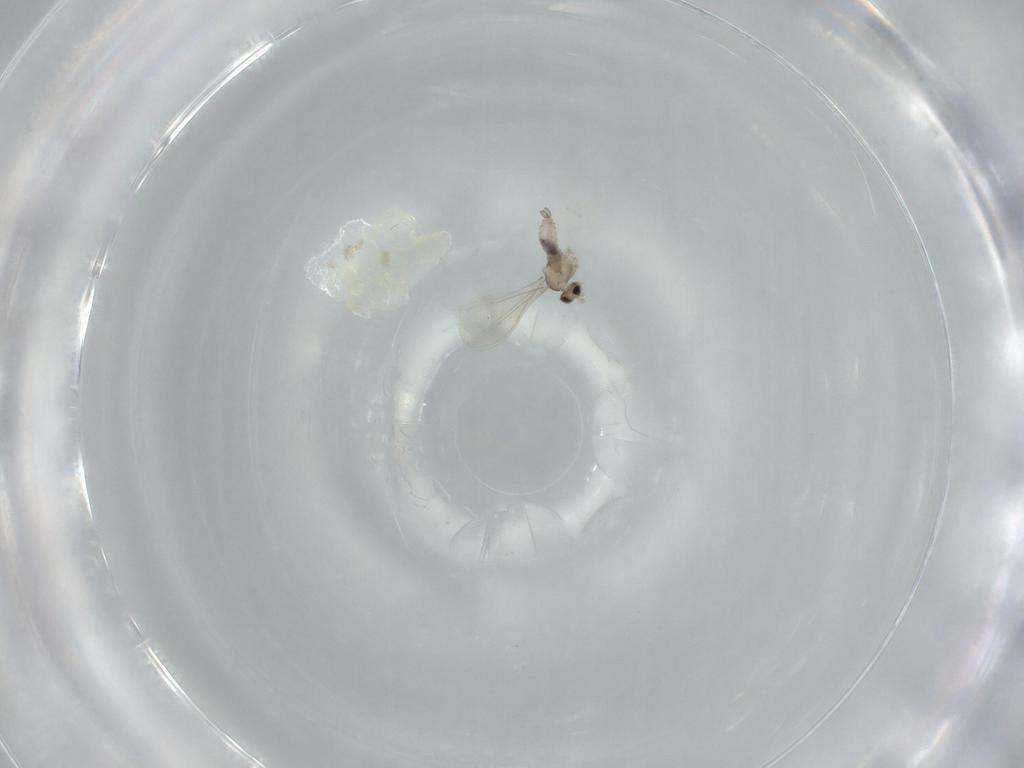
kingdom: Animalia
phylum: Arthropoda
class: Insecta
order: Diptera
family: Cecidomyiidae
